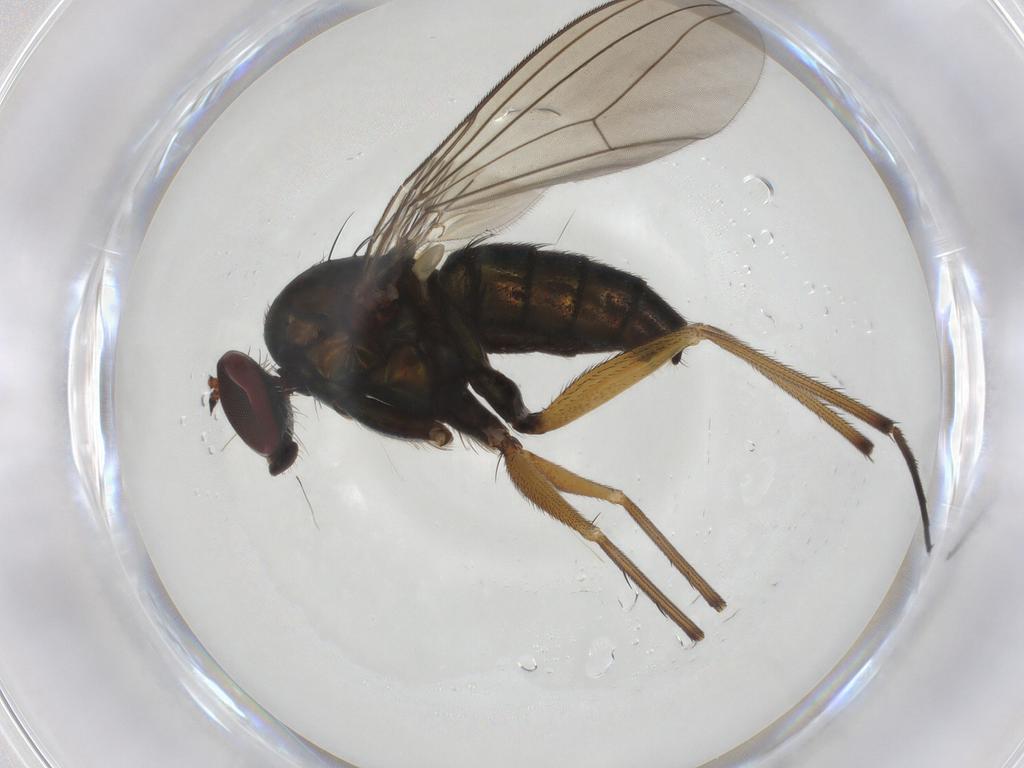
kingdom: Animalia
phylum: Arthropoda
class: Insecta
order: Diptera
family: Dolichopodidae
